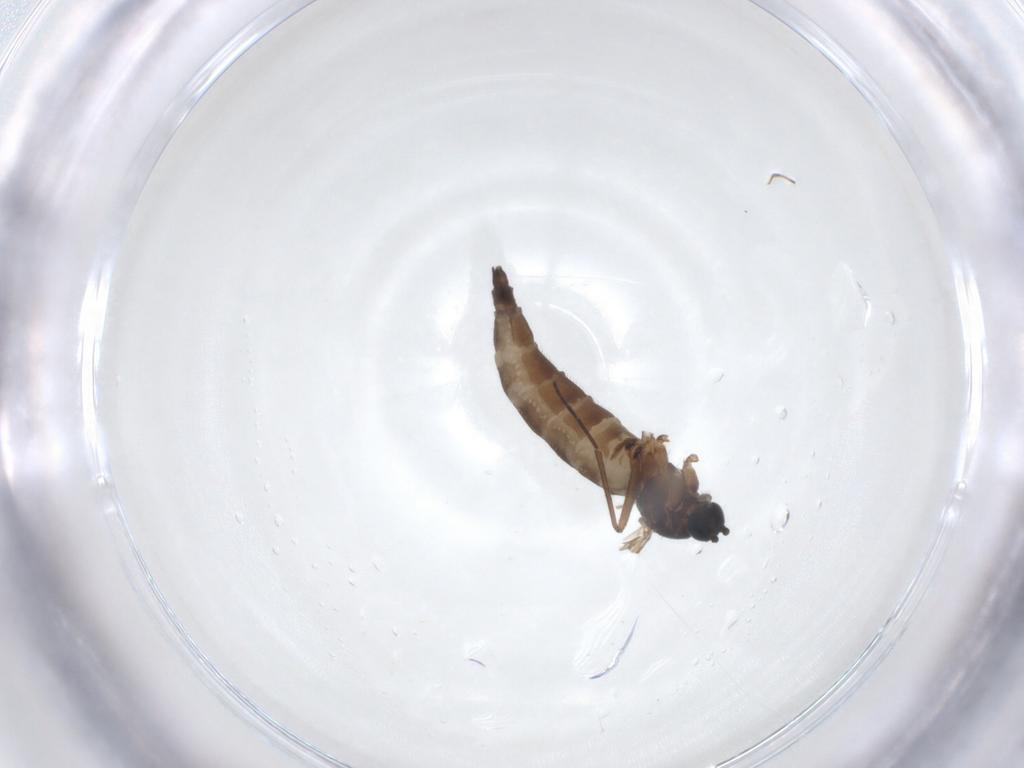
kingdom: Animalia
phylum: Arthropoda
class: Insecta
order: Diptera
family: Sciaridae
